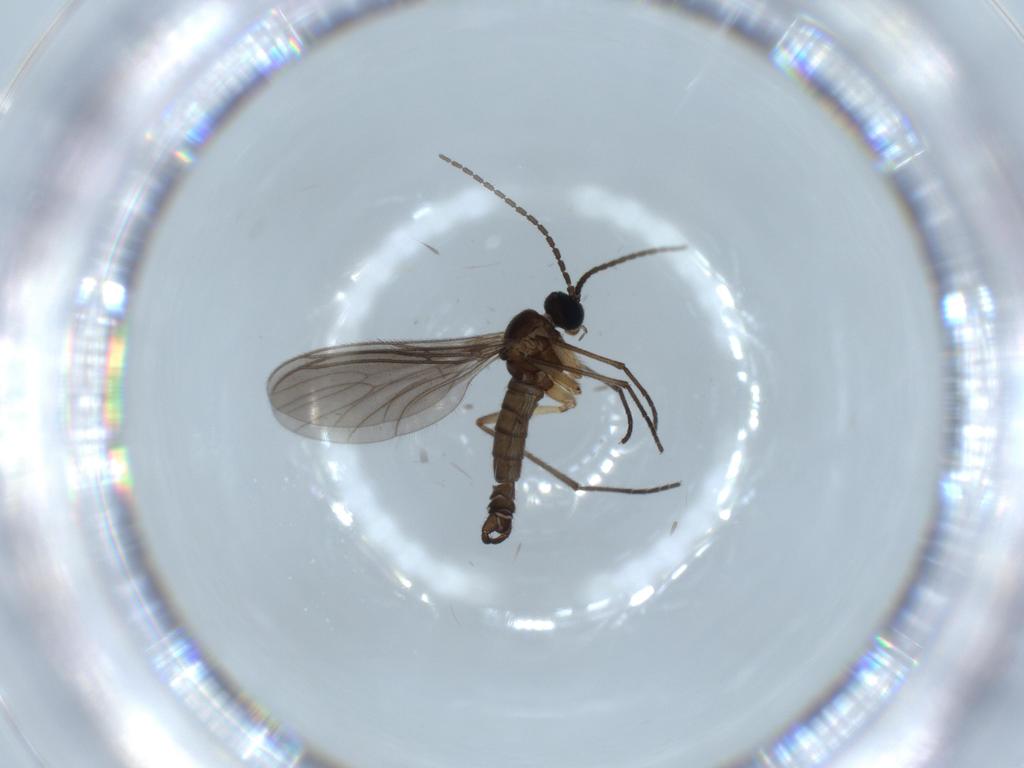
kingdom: Animalia
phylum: Arthropoda
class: Insecta
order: Diptera
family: Sciaridae
